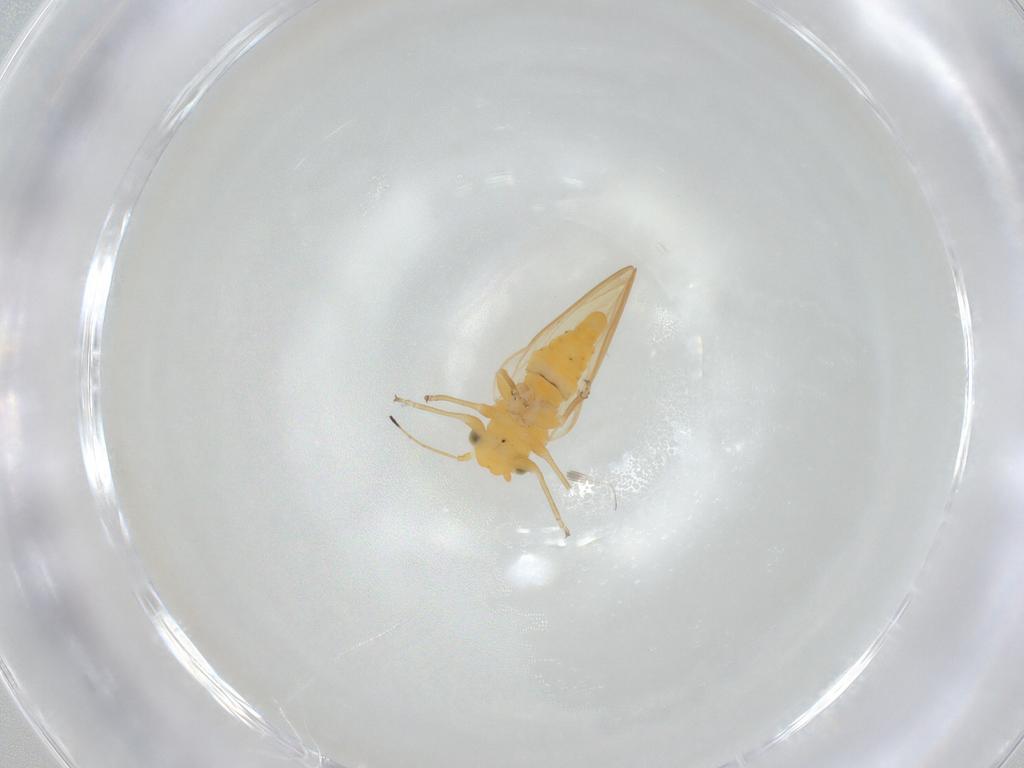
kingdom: Animalia
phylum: Arthropoda
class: Insecta
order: Hemiptera
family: Psylloidea_incertae_sedis
